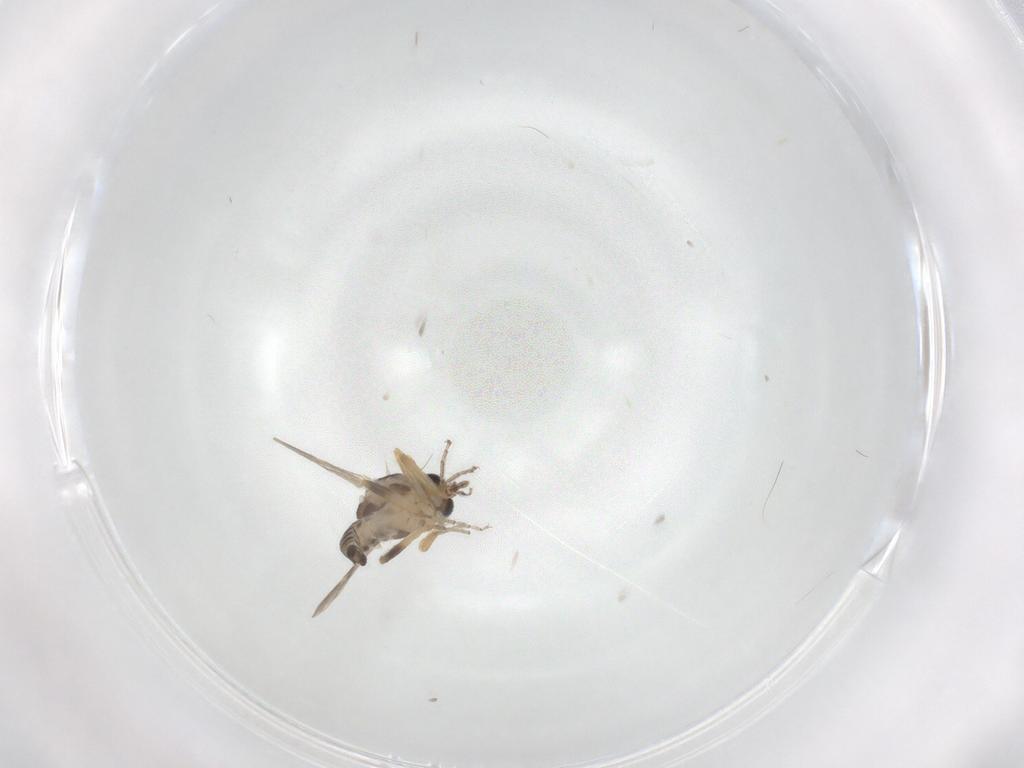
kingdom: Animalia
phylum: Arthropoda
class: Insecta
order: Diptera
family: Ceratopogonidae
